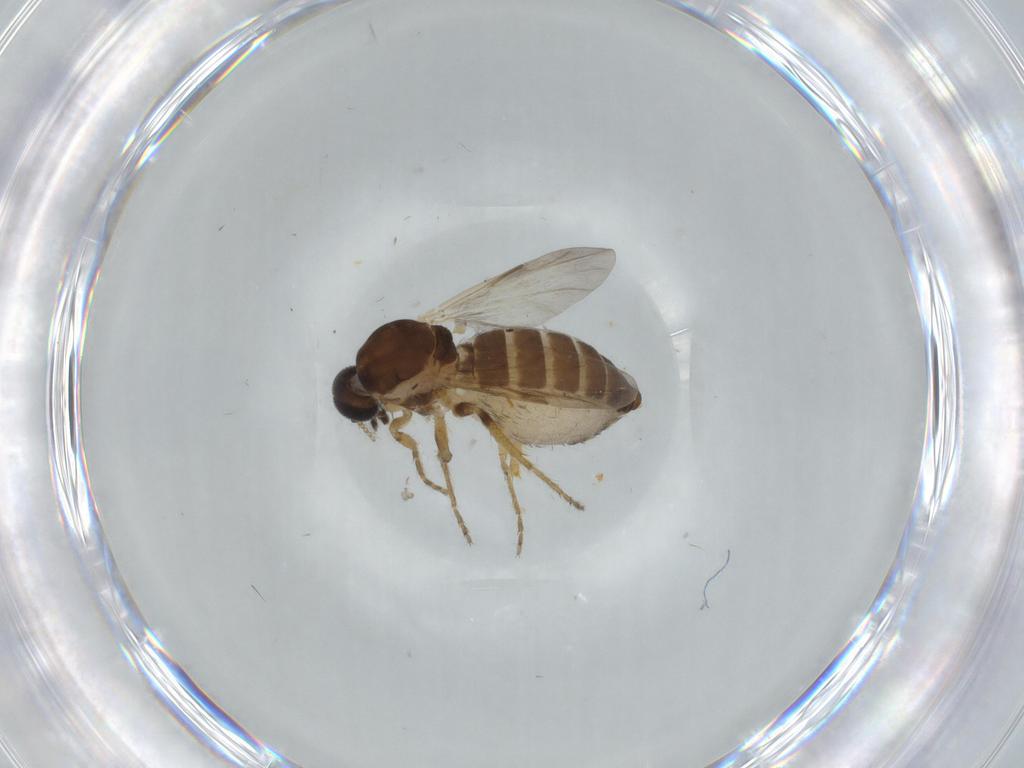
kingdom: Animalia
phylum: Arthropoda
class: Insecta
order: Diptera
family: Ceratopogonidae
